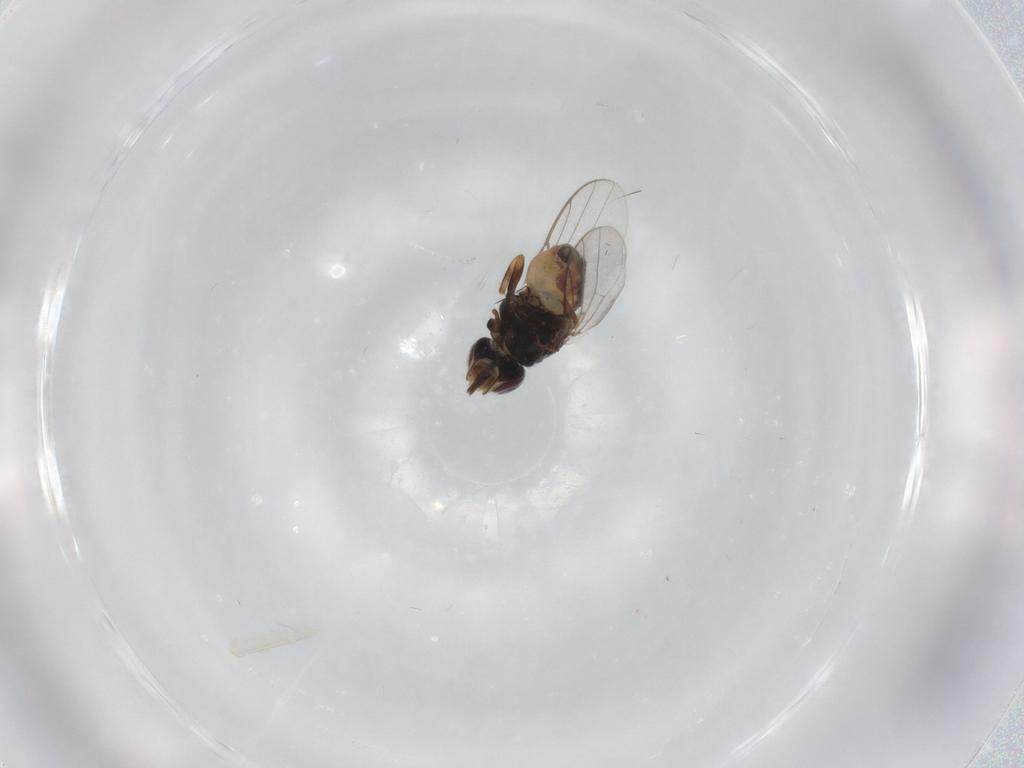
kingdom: Animalia
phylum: Arthropoda
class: Insecta
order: Diptera
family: Chloropidae
